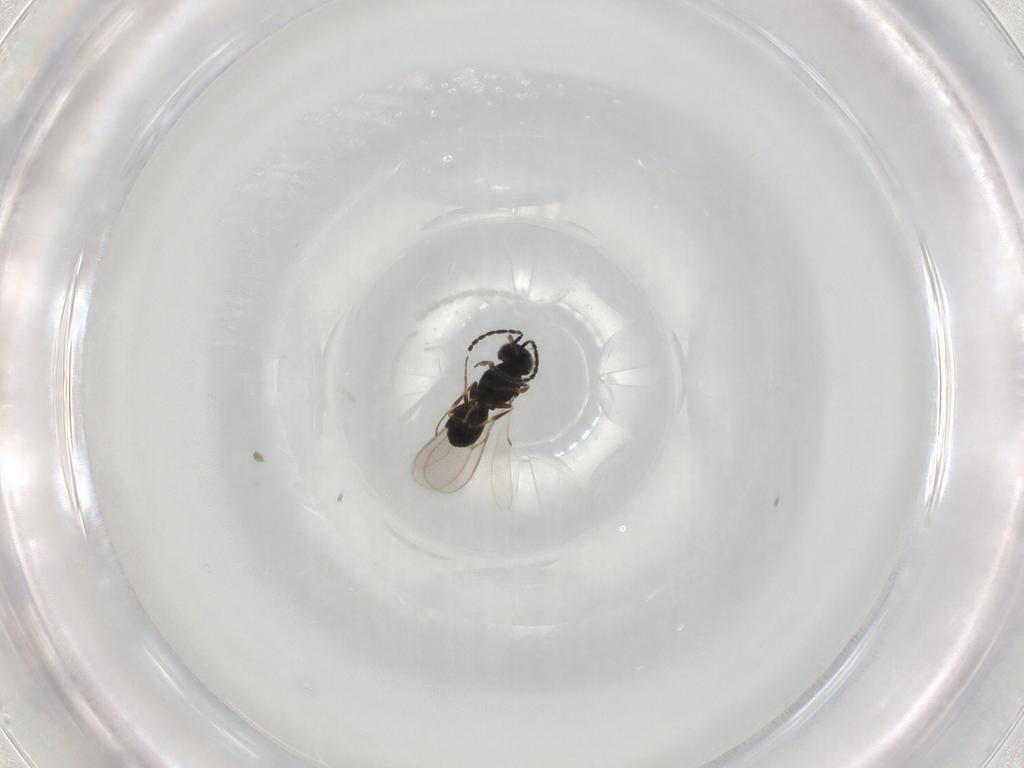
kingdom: Animalia
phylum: Arthropoda
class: Insecta
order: Hymenoptera
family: Scelionidae
